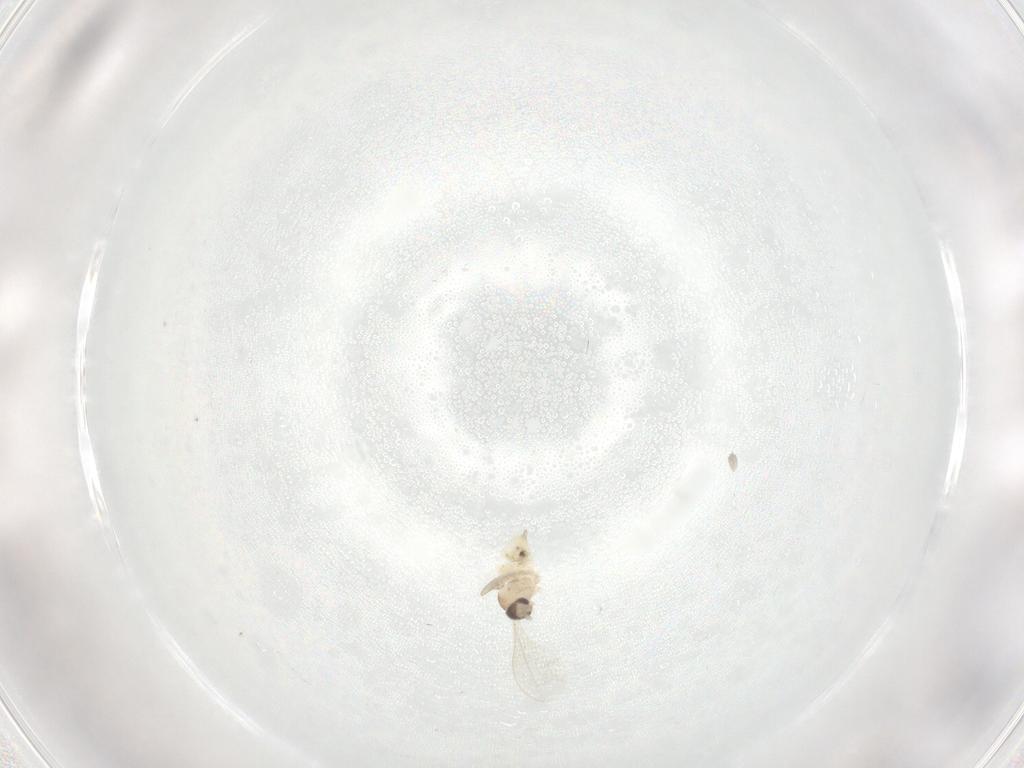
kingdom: Animalia
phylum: Arthropoda
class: Insecta
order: Diptera
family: Cecidomyiidae
